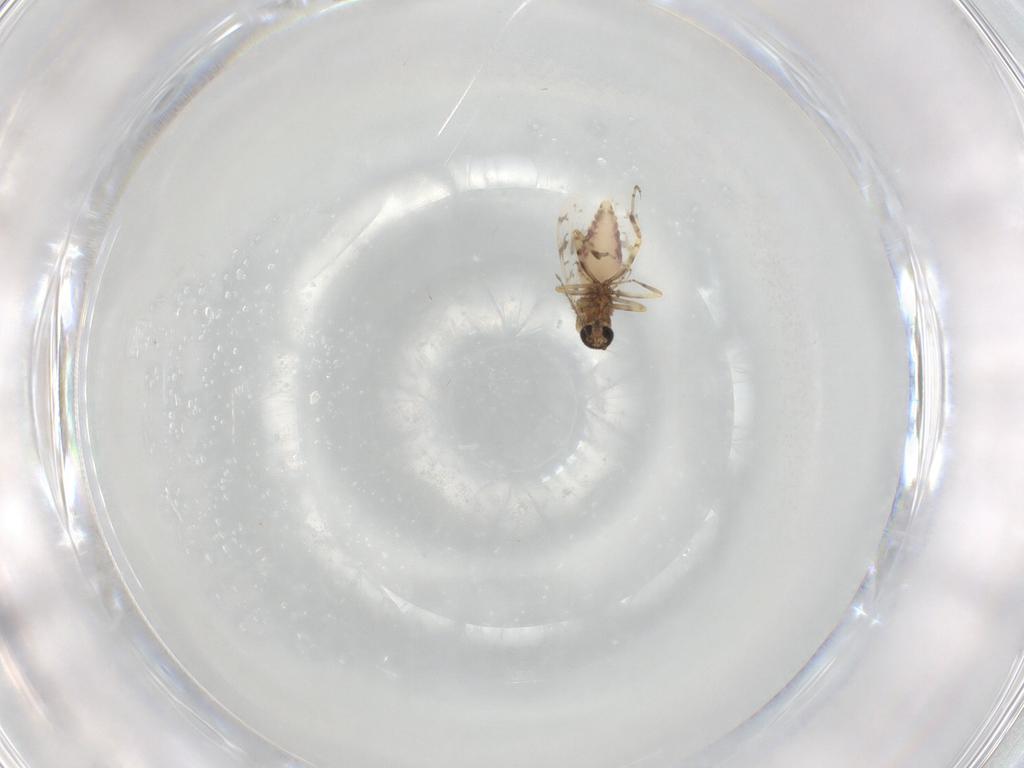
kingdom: Animalia
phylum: Arthropoda
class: Insecta
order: Diptera
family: Ceratopogonidae
